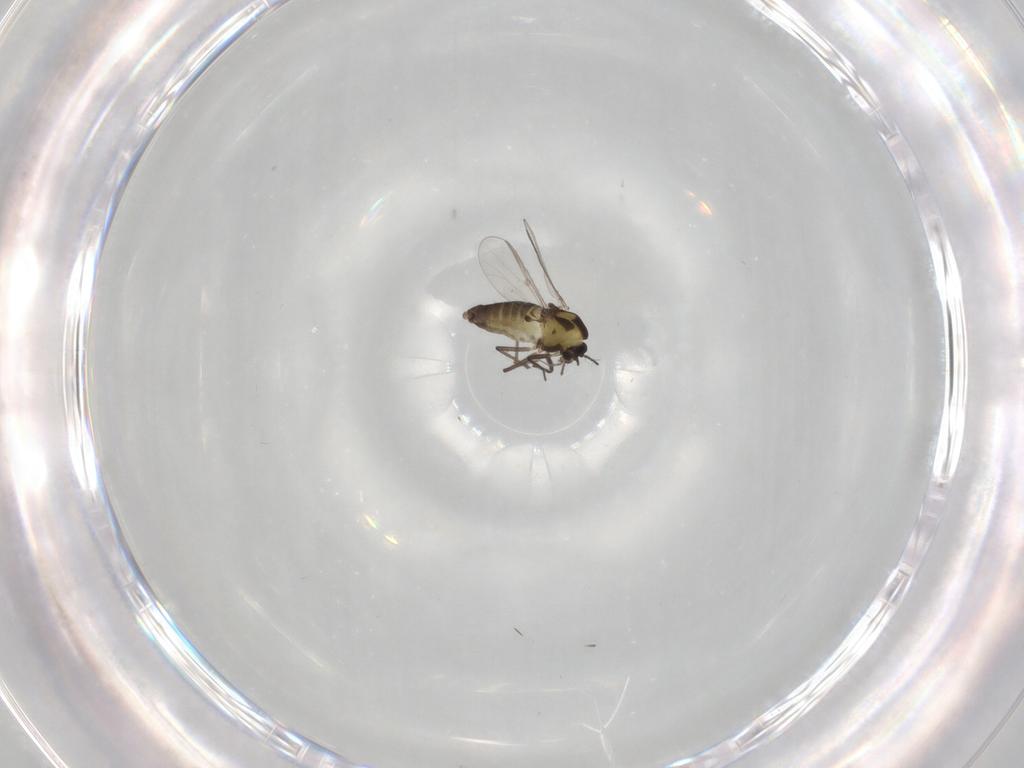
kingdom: Animalia
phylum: Arthropoda
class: Insecta
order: Diptera
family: Chironomidae
